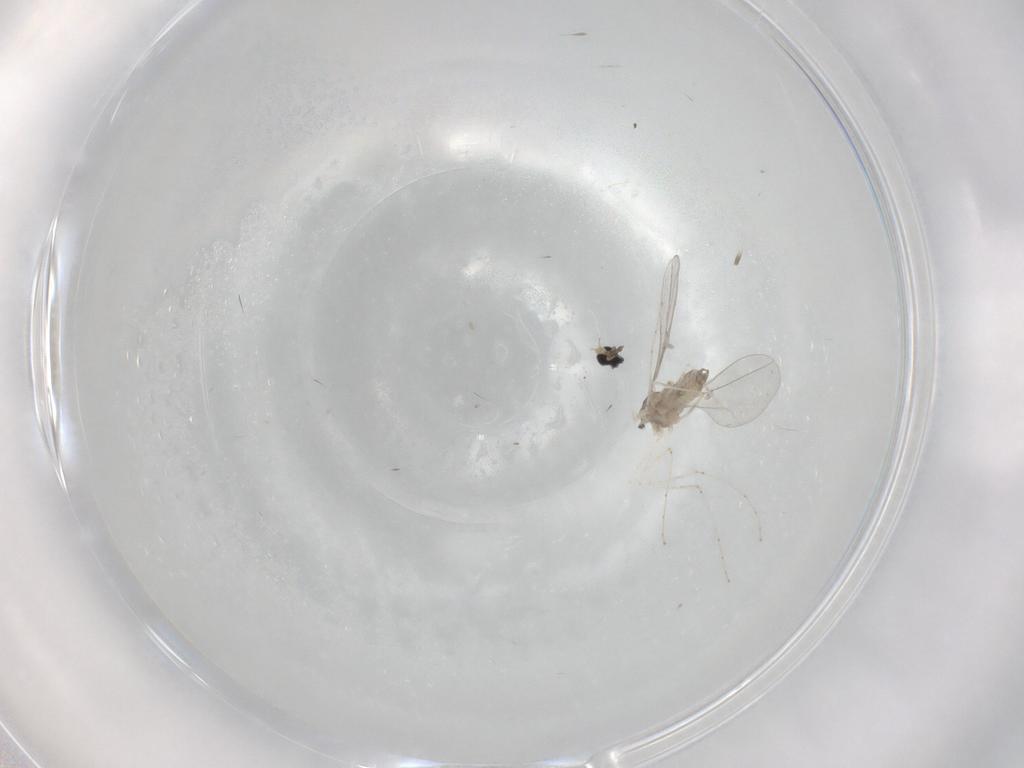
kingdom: Animalia
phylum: Arthropoda
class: Insecta
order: Diptera
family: Cecidomyiidae
